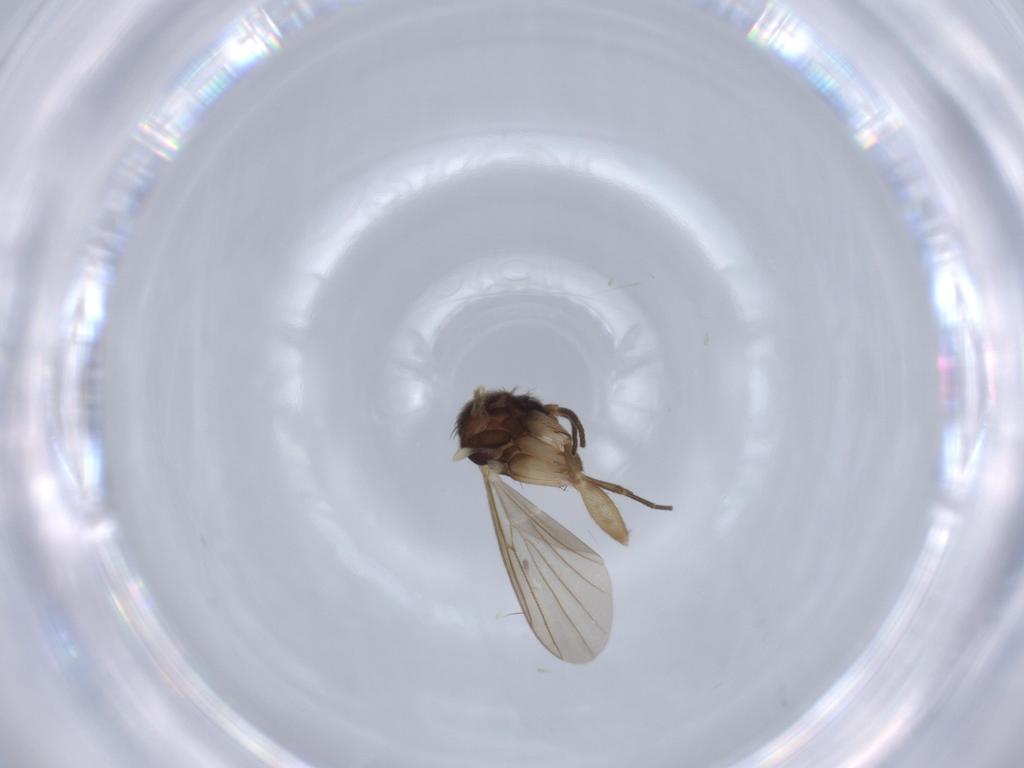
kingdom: Animalia
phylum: Arthropoda
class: Insecta
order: Diptera
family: Mycetophilidae
